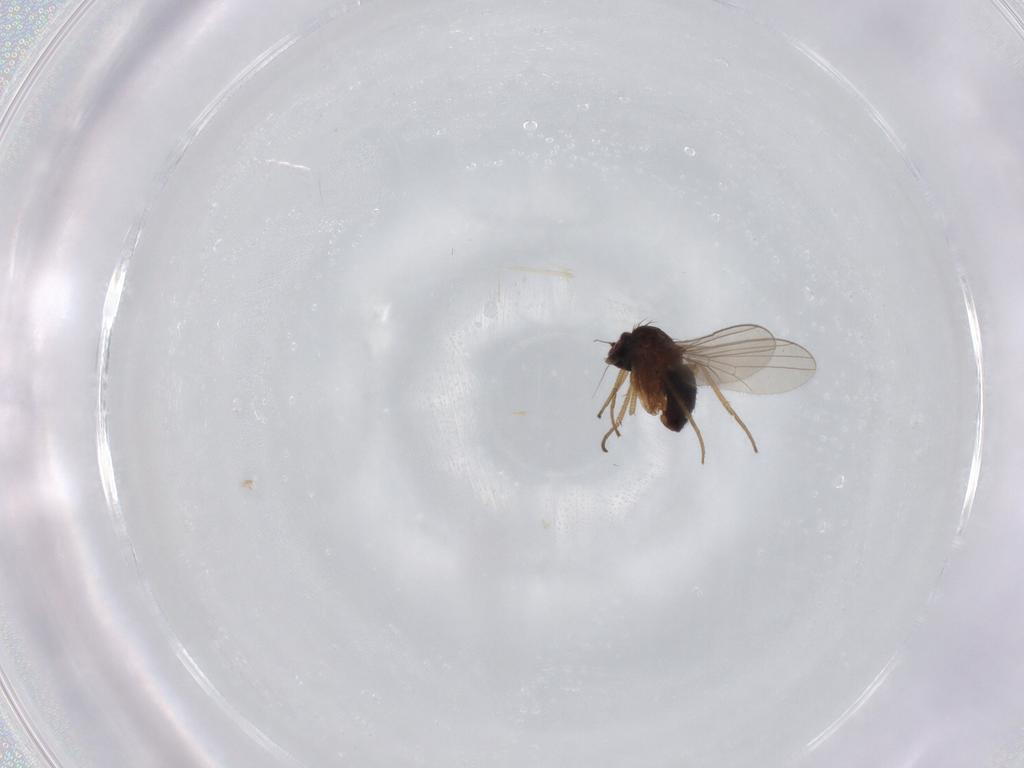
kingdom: Animalia
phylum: Arthropoda
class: Insecta
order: Diptera
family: Dolichopodidae
